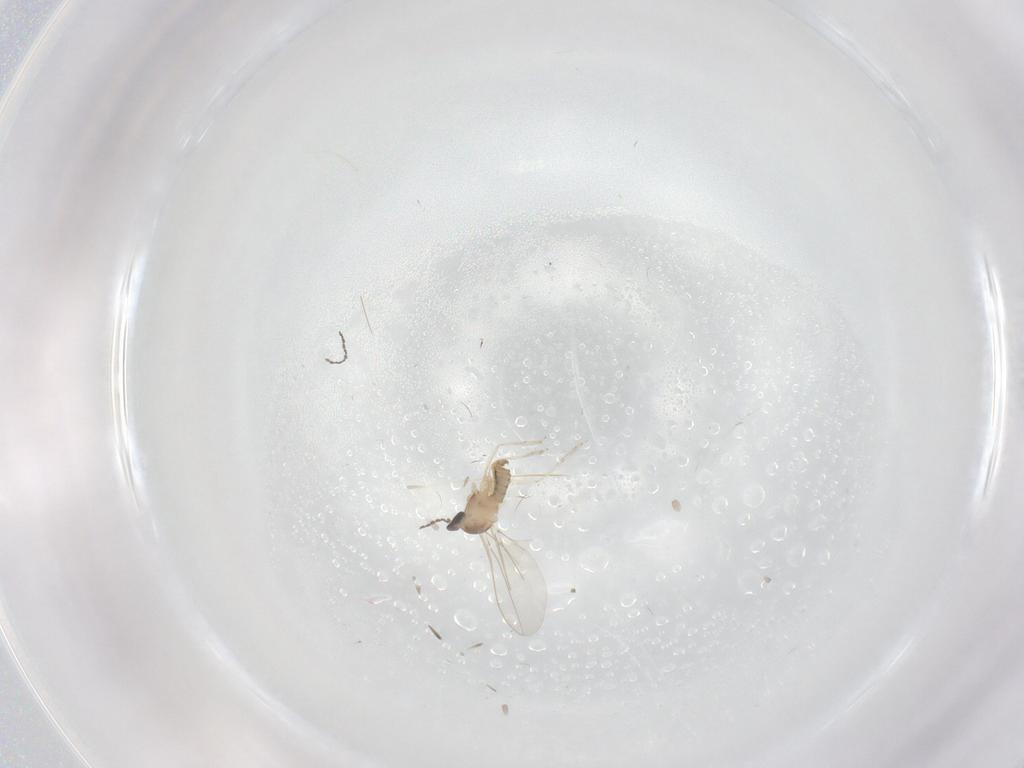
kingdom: Animalia
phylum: Arthropoda
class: Insecta
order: Diptera
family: Cecidomyiidae
